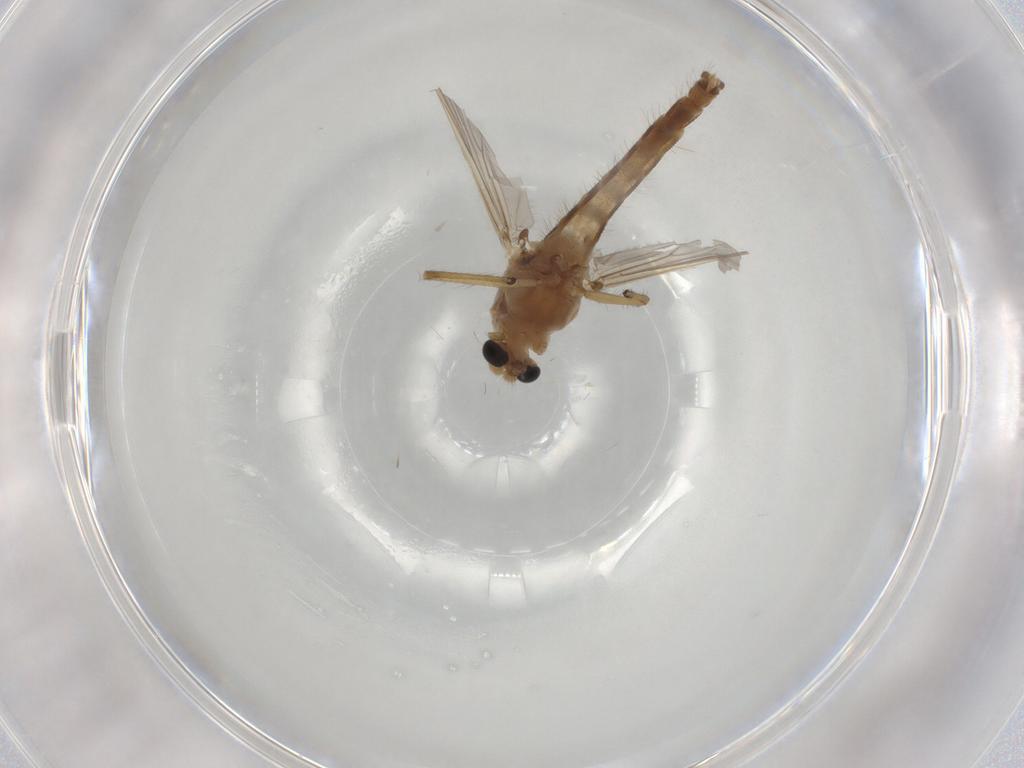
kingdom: Animalia
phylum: Arthropoda
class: Insecta
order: Diptera
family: Chironomidae
